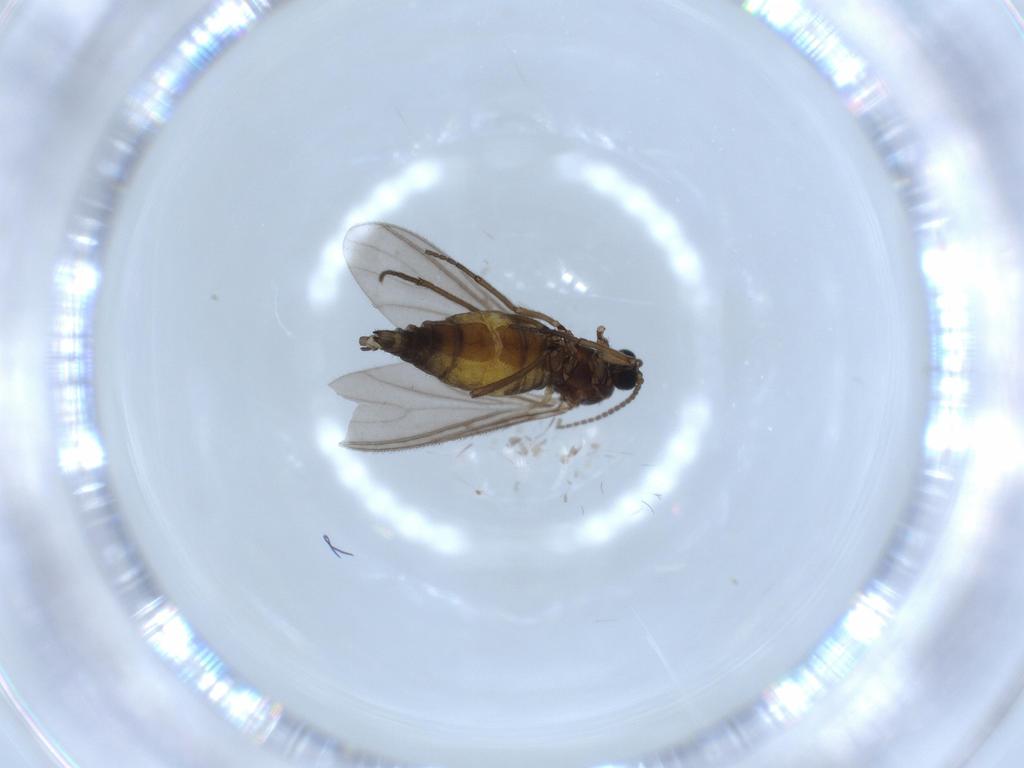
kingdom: Animalia
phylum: Arthropoda
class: Insecta
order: Diptera
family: Sciaridae
